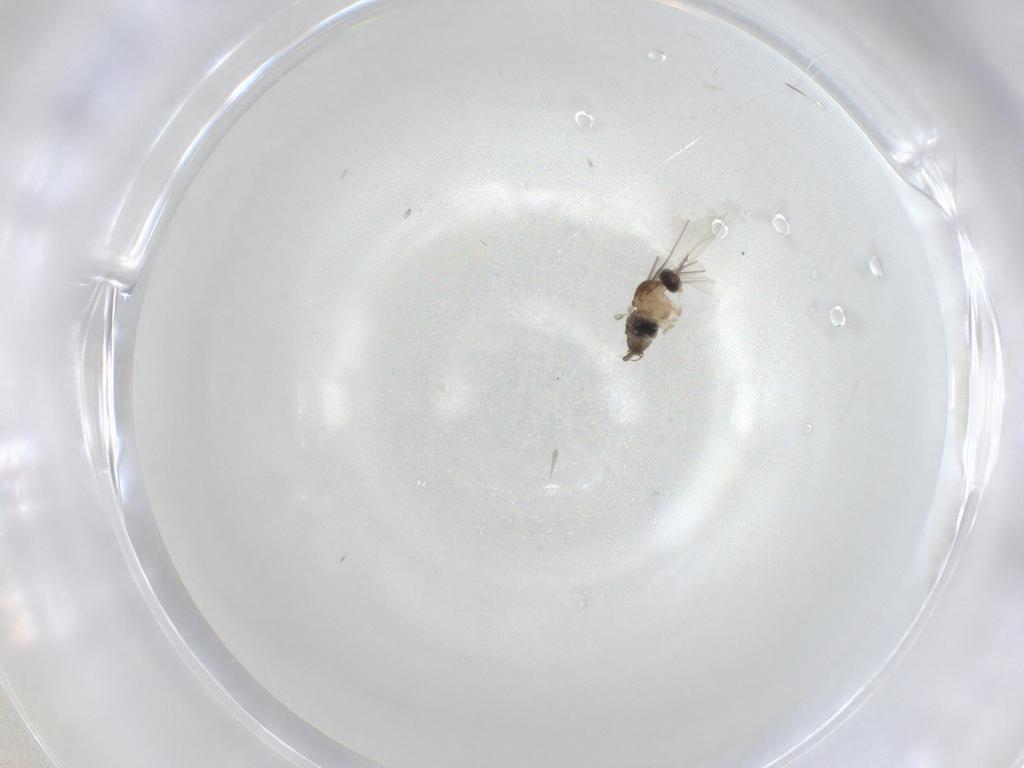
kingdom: Animalia
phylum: Arthropoda
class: Insecta
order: Diptera
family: Cecidomyiidae
